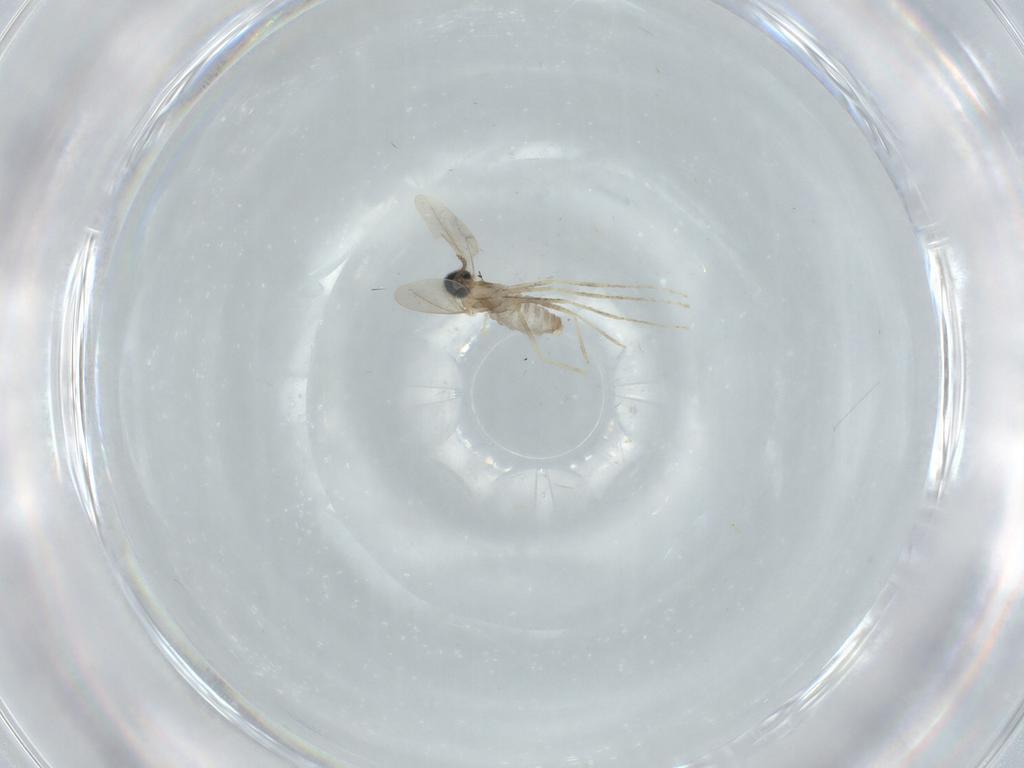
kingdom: Animalia
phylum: Arthropoda
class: Insecta
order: Diptera
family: Cecidomyiidae
